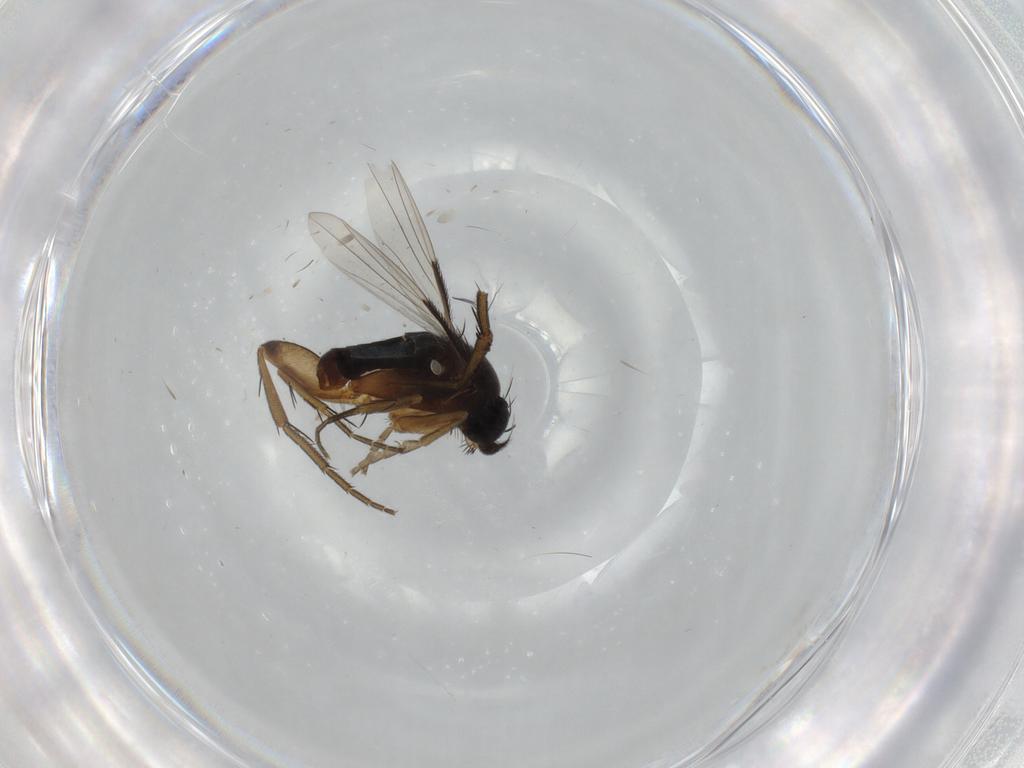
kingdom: Animalia
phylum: Arthropoda
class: Insecta
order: Diptera
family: Phoridae
